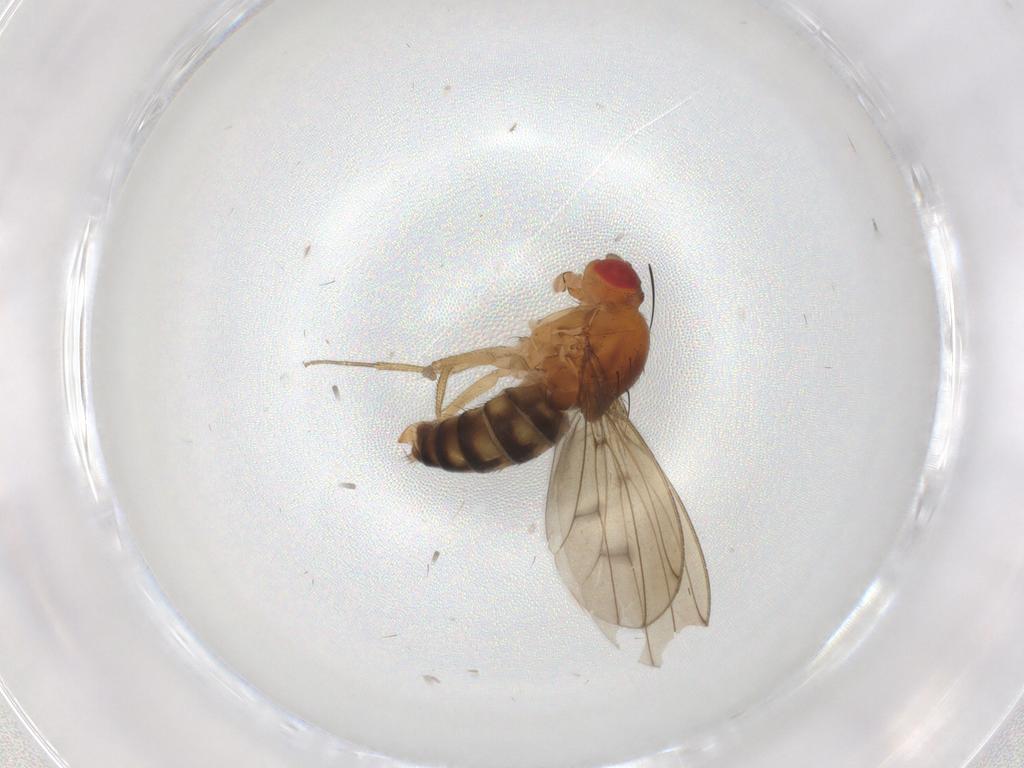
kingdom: Animalia
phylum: Arthropoda
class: Insecta
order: Diptera
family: Drosophilidae
